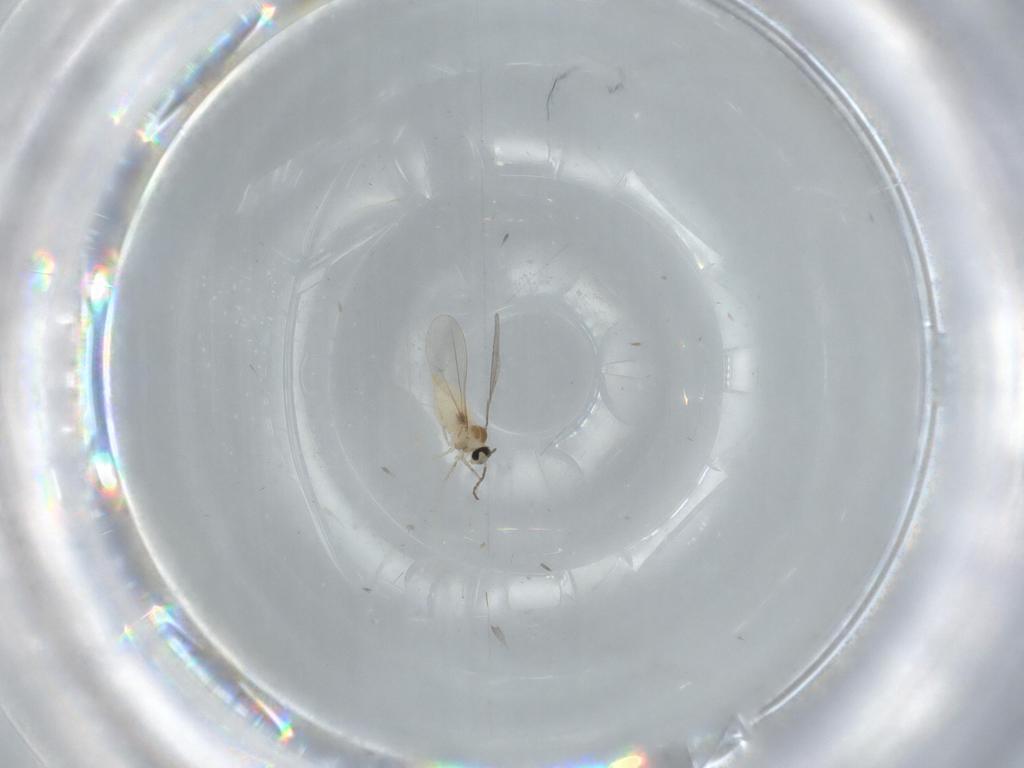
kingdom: Animalia
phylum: Arthropoda
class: Insecta
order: Diptera
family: Cecidomyiidae
